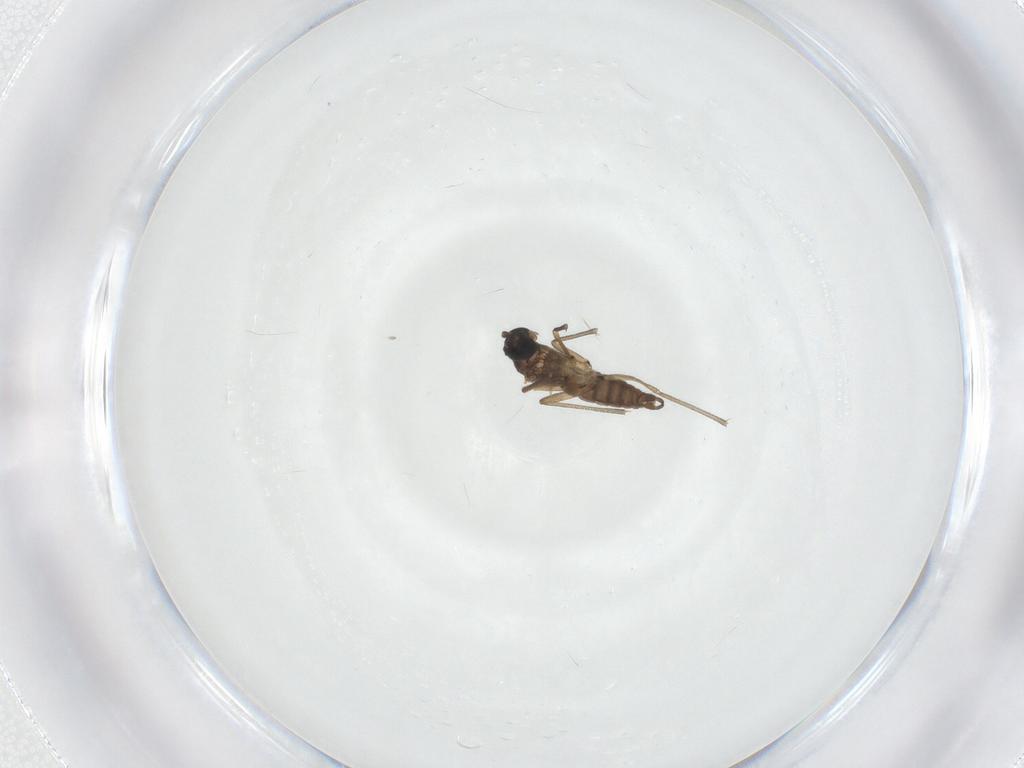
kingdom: Animalia
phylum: Arthropoda
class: Insecta
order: Diptera
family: Sciaridae
